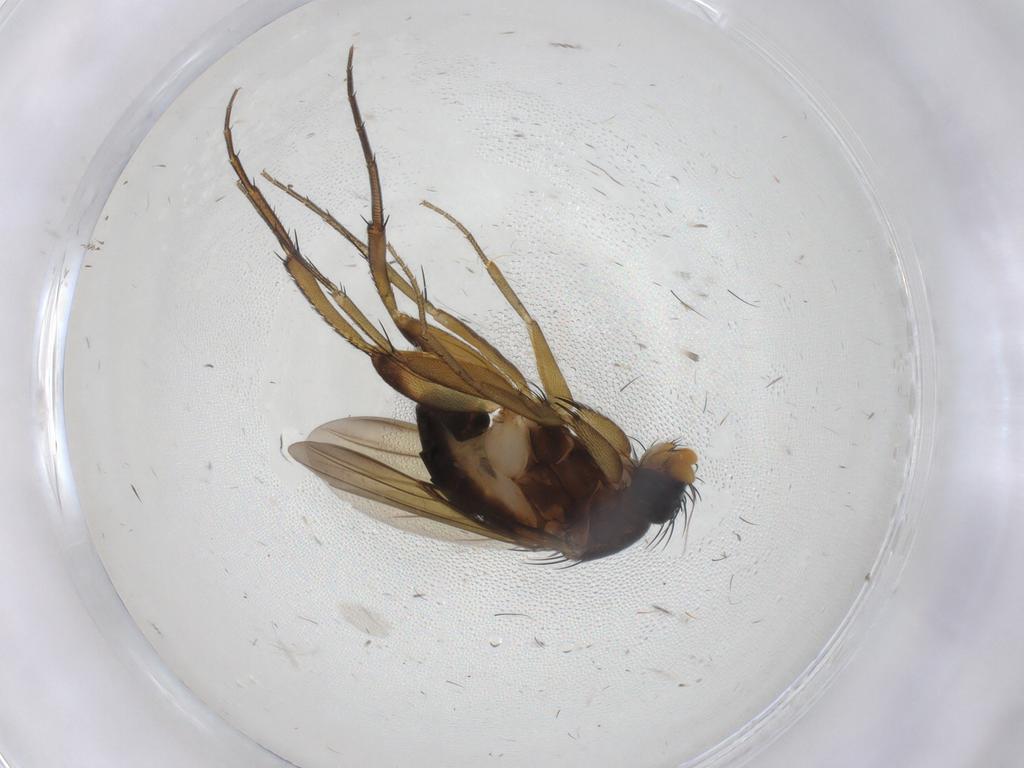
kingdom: Animalia
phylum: Arthropoda
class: Insecta
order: Diptera
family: Phoridae
